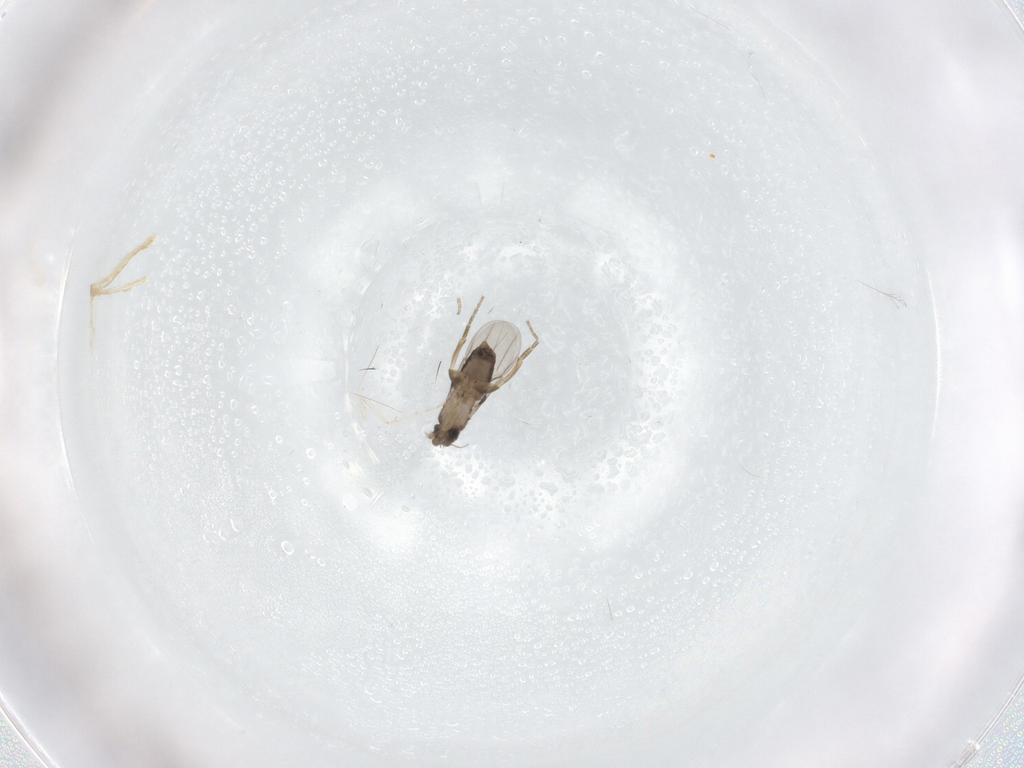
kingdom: Animalia
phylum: Arthropoda
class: Insecta
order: Diptera
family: Phoridae
